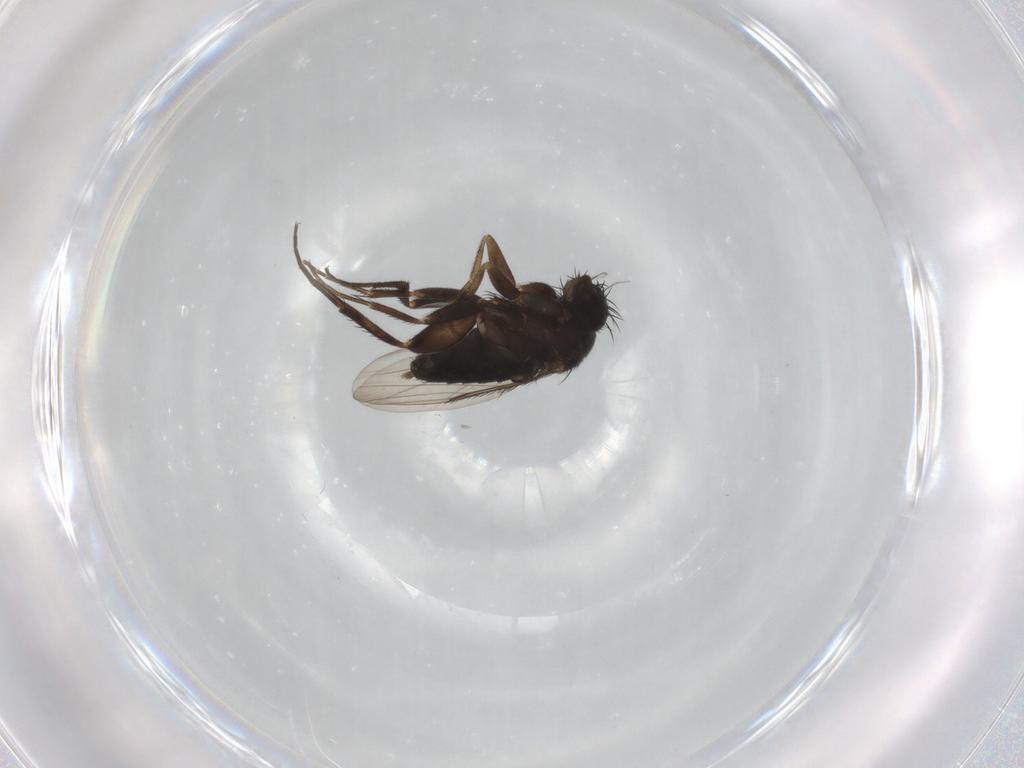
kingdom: Animalia
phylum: Arthropoda
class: Insecta
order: Diptera
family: Phoridae
